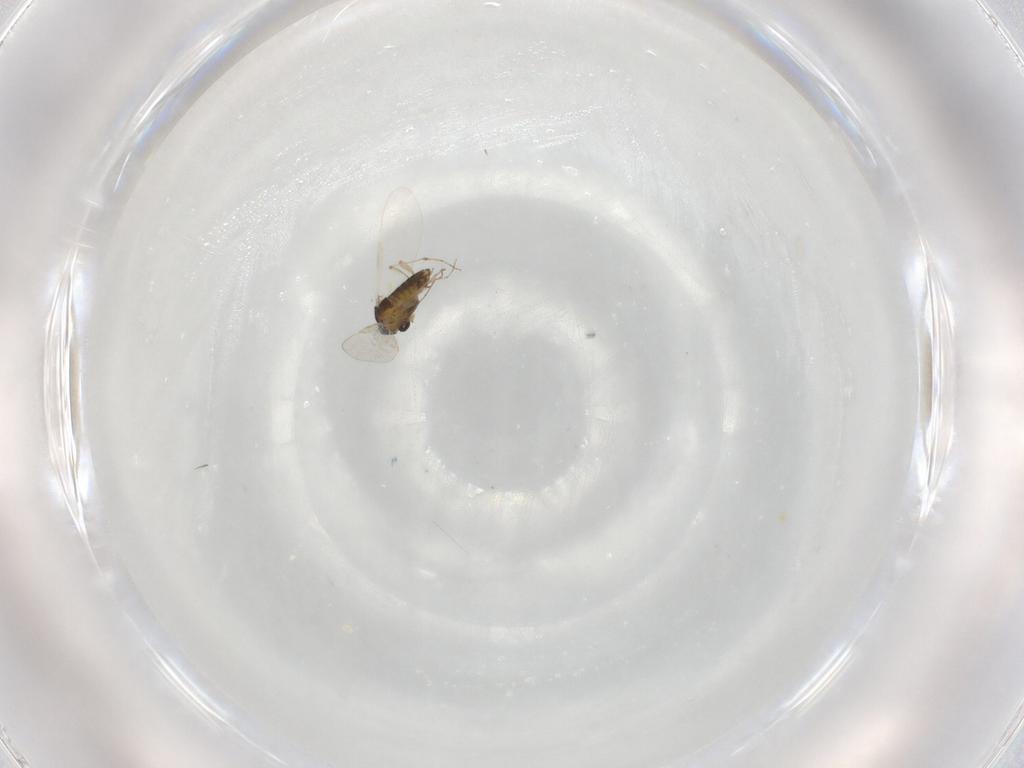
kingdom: Animalia
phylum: Arthropoda
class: Insecta
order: Diptera
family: Chironomidae
